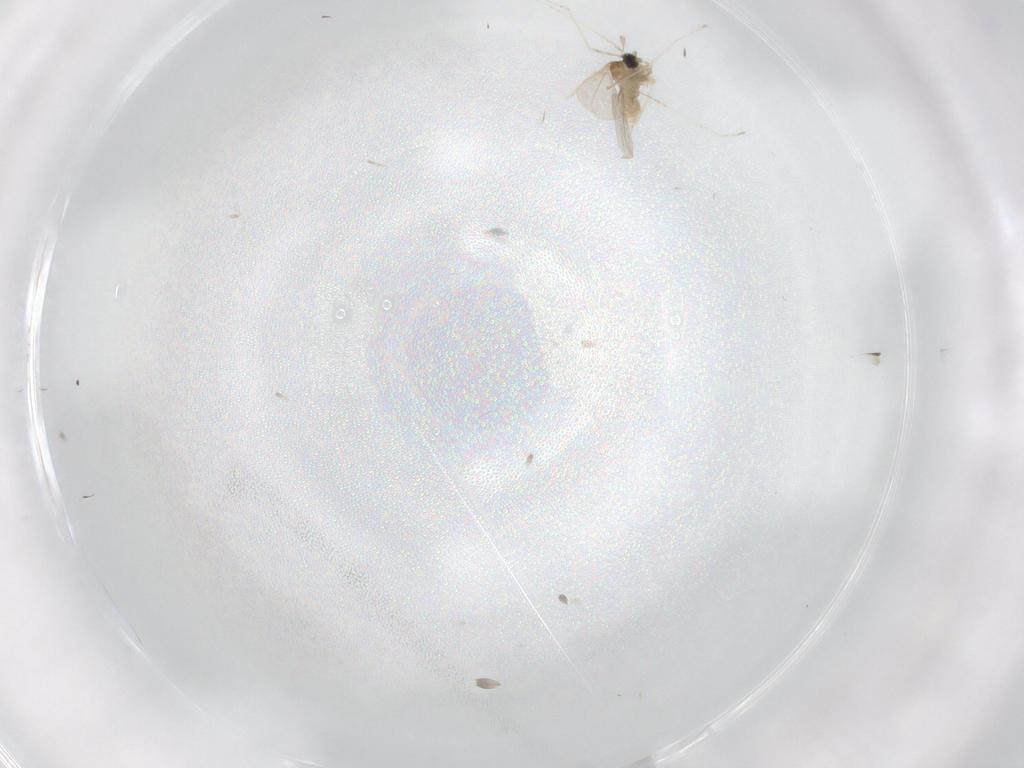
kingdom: Animalia
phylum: Arthropoda
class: Insecta
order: Diptera
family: Cecidomyiidae
